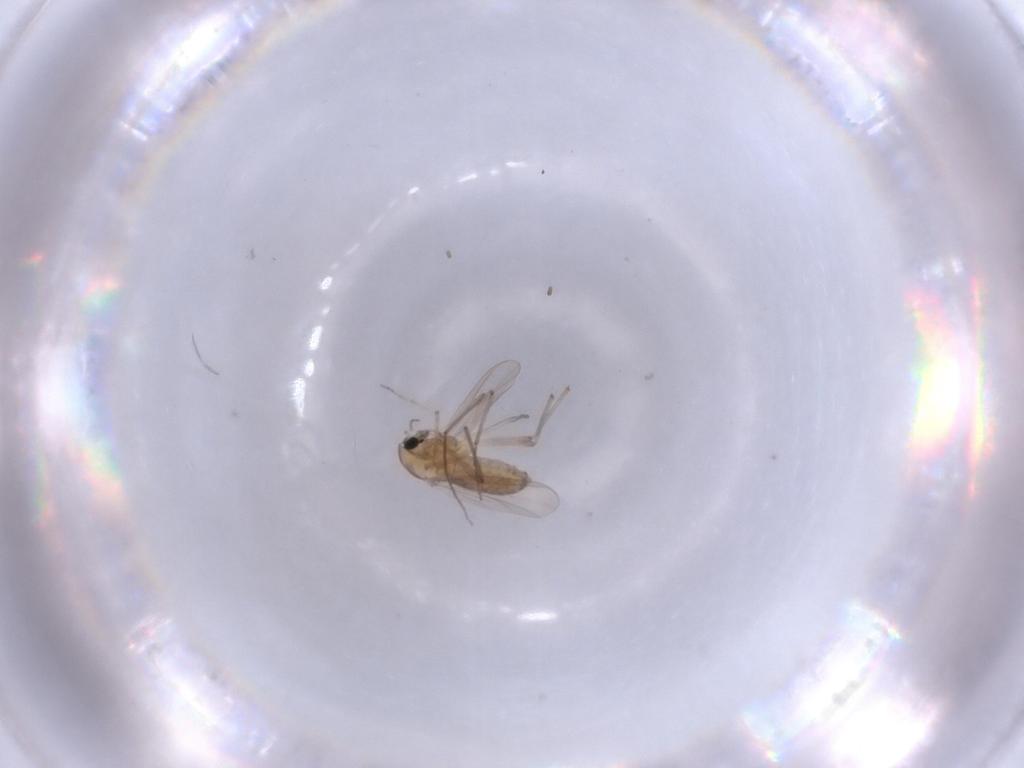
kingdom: Animalia
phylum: Arthropoda
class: Insecta
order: Diptera
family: Chironomidae
